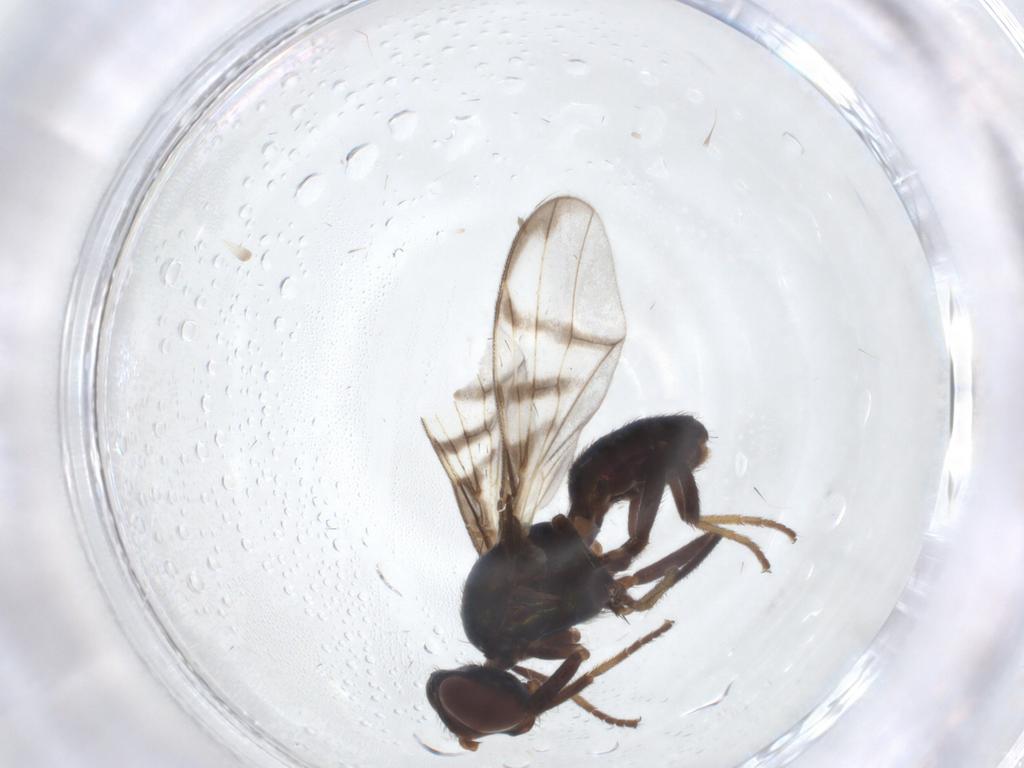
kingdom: Animalia
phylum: Arthropoda
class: Insecta
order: Diptera
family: Platystomatidae
